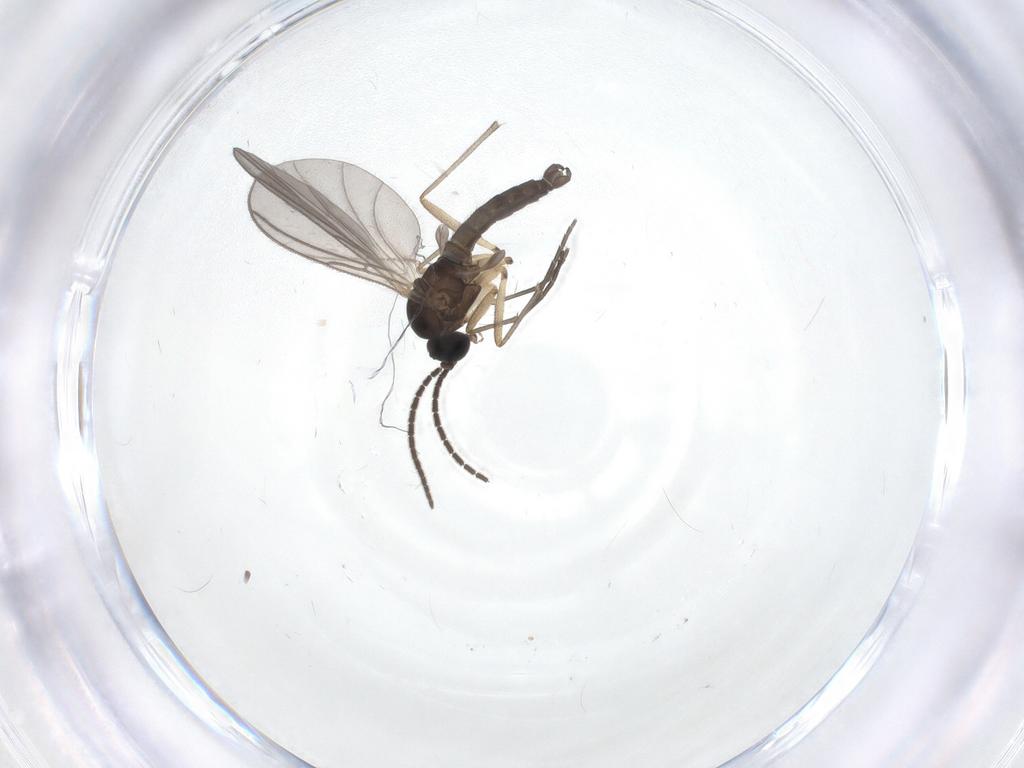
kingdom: Animalia
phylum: Arthropoda
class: Insecta
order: Diptera
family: Sciaridae
